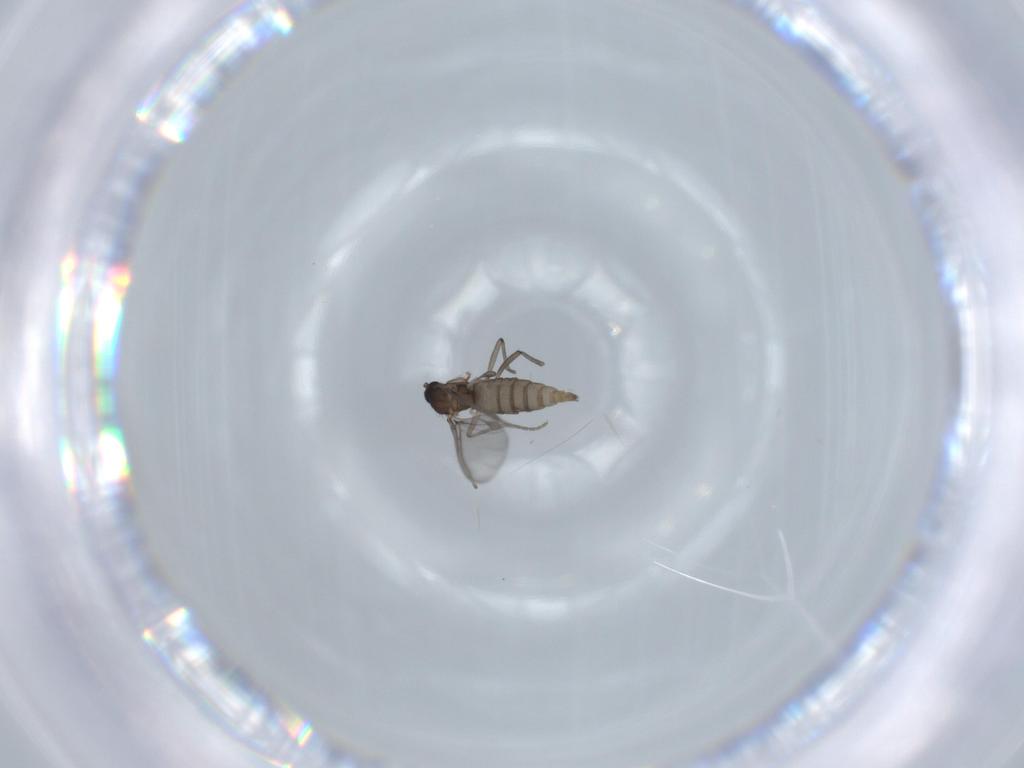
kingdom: Animalia
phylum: Arthropoda
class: Insecta
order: Diptera
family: Sciaridae
